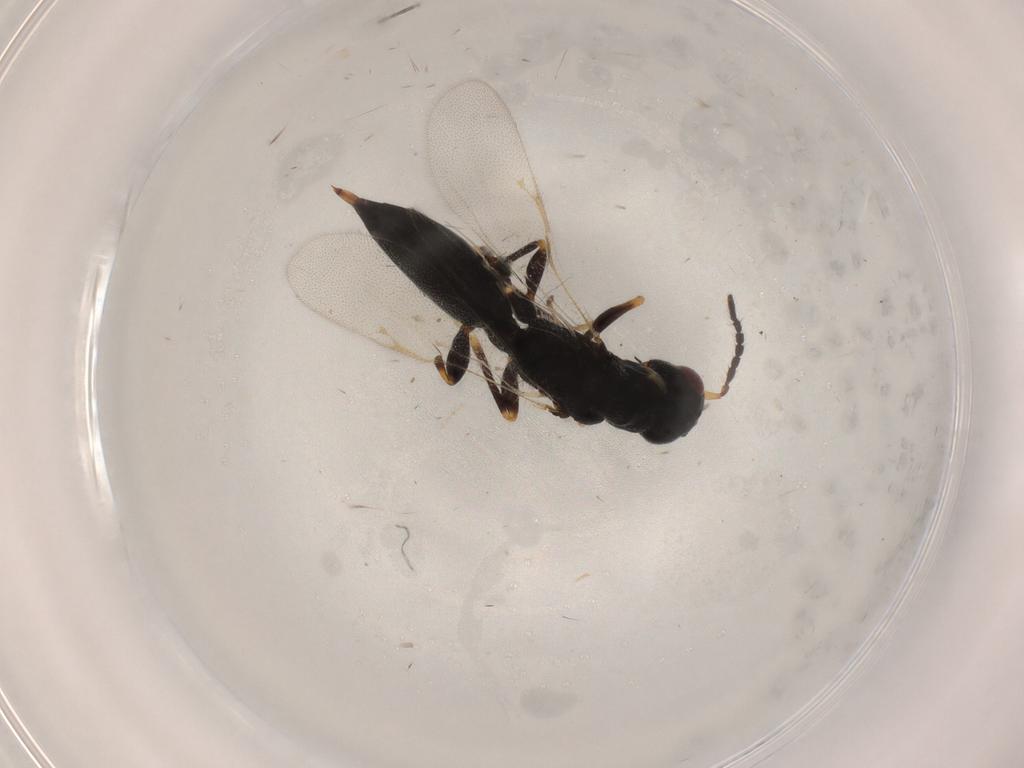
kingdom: Animalia
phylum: Arthropoda
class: Insecta
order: Hymenoptera
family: Eurytomidae
